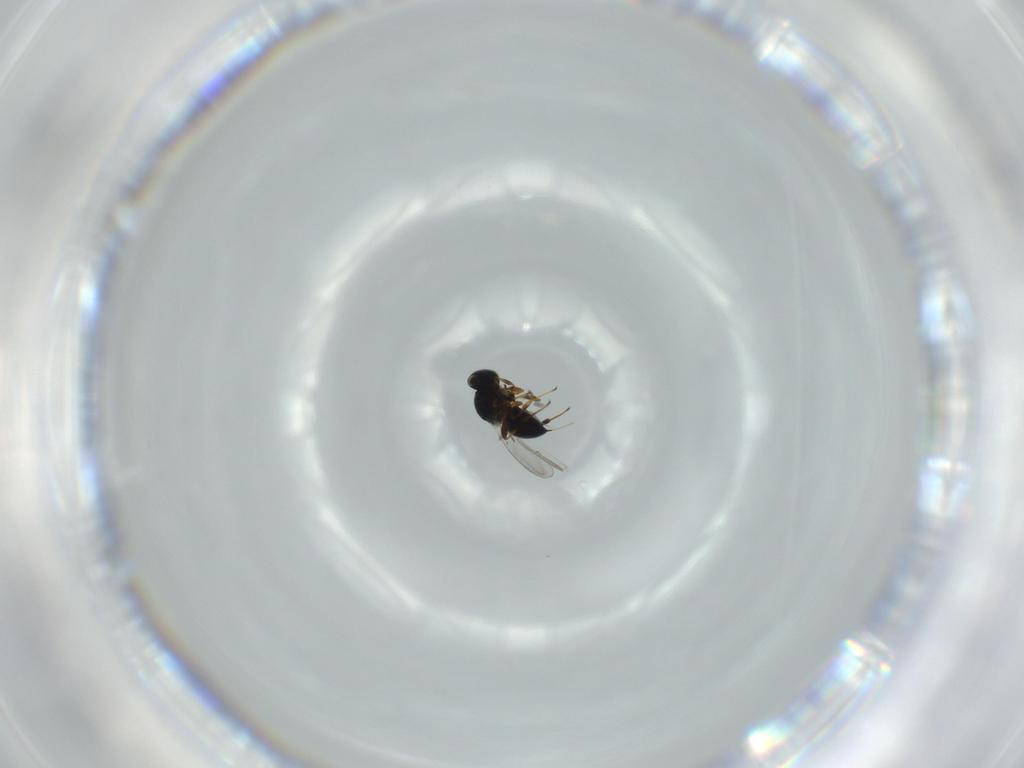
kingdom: Animalia
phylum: Arthropoda
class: Insecta
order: Hymenoptera
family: Platygastridae
